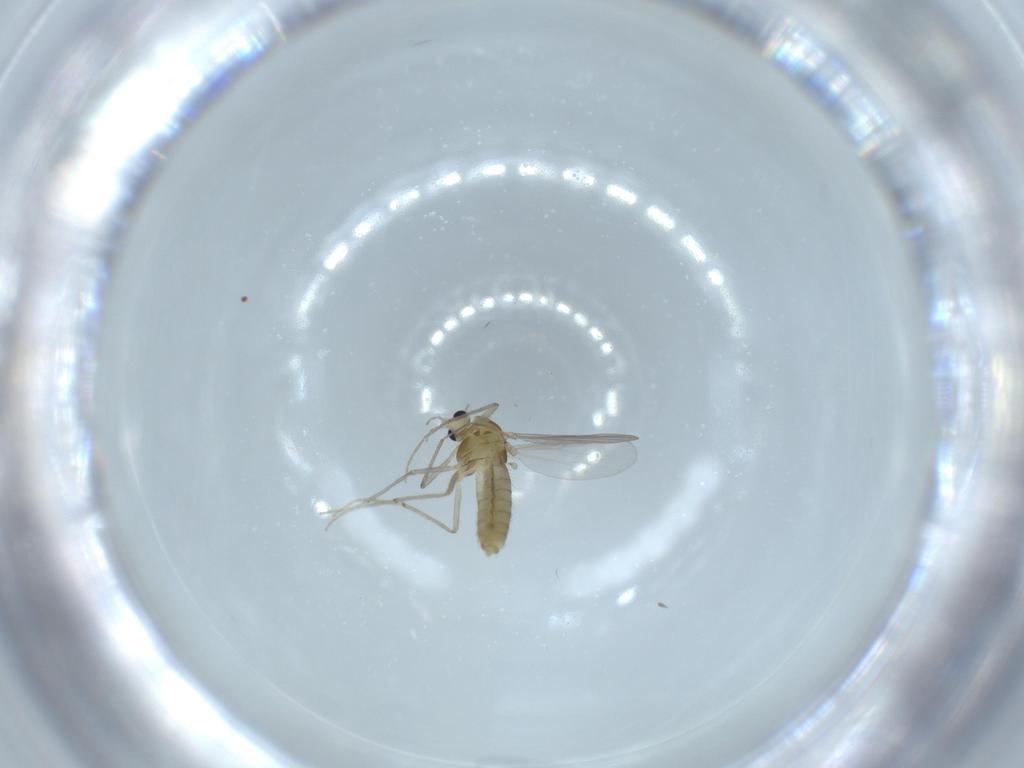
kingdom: Animalia
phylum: Arthropoda
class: Insecta
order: Diptera
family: Chironomidae
